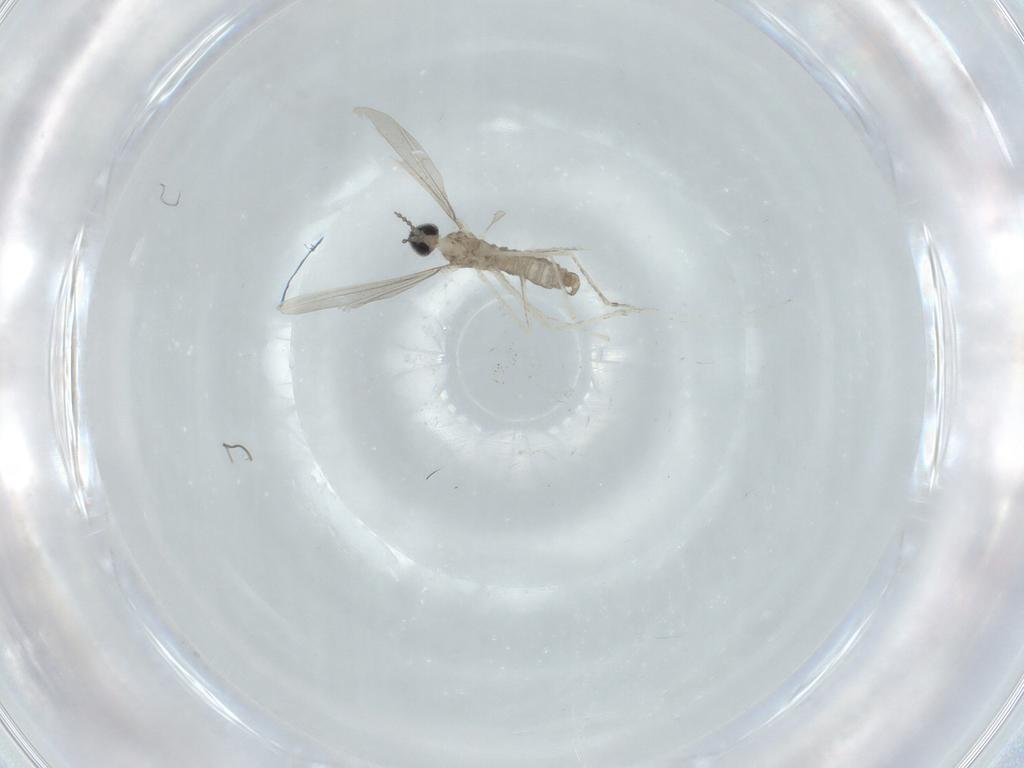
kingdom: Animalia
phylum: Arthropoda
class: Insecta
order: Diptera
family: Cecidomyiidae
